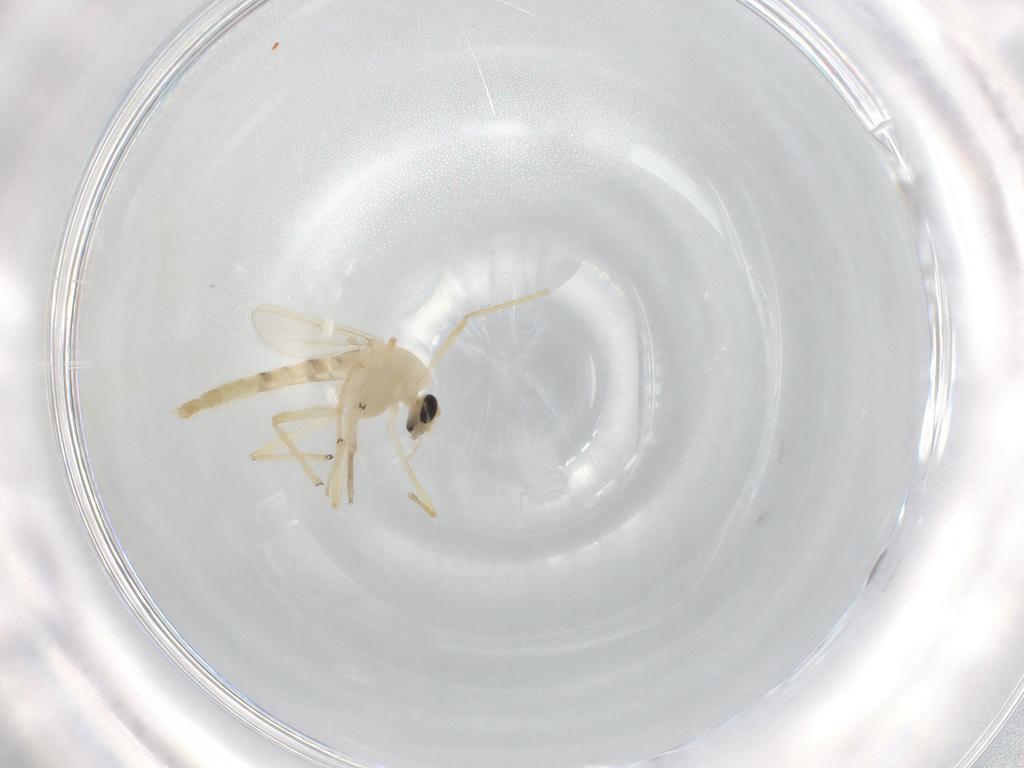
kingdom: Animalia
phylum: Arthropoda
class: Insecta
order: Diptera
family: Chironomidae
